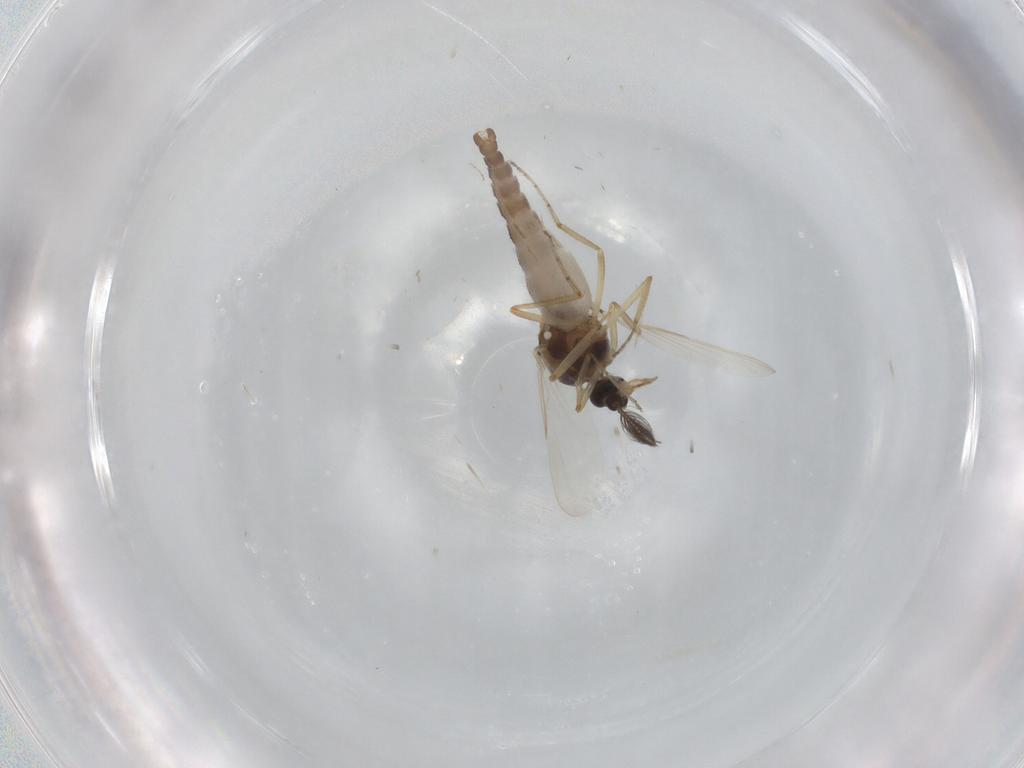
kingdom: Animalia
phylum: Arthropoda
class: Insecta
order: Diptera
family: Ceratopogonidae
